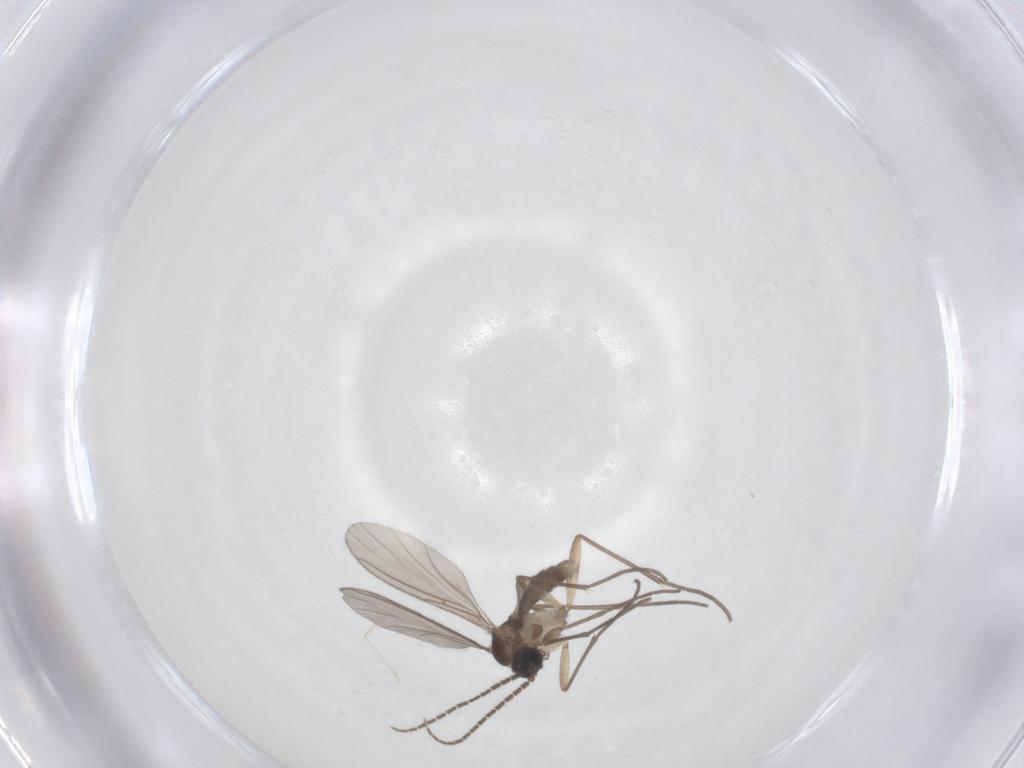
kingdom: Animalia
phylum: Arthropoda
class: Insecta
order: Diptera
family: Sciaridae
